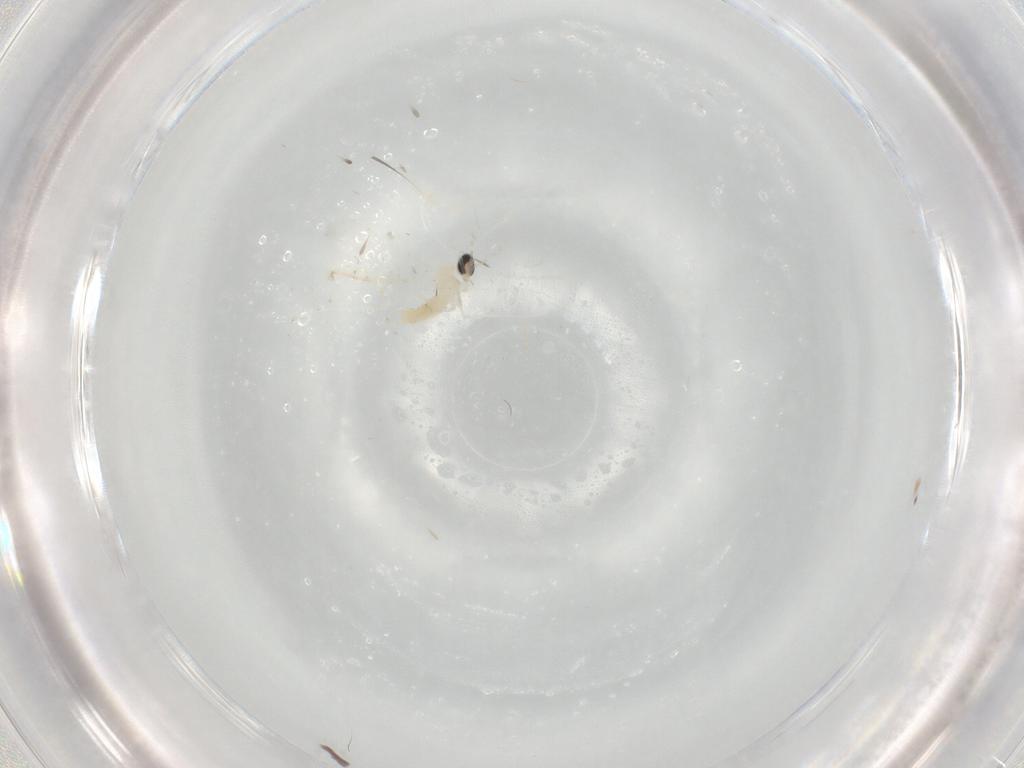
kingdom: Animalia
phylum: Arthropoda
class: Insecta
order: Diptera
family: Cecidomyiidae
